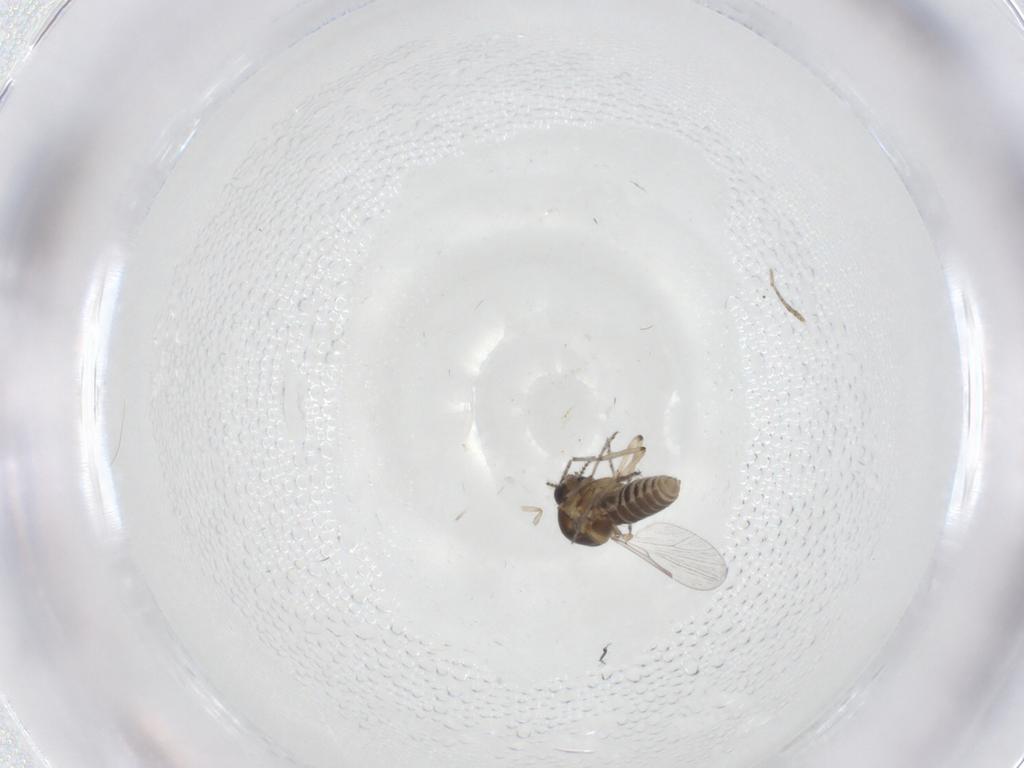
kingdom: Animalia
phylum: Arthropoda
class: Insecta
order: Diptera
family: Ceratopogonidae
